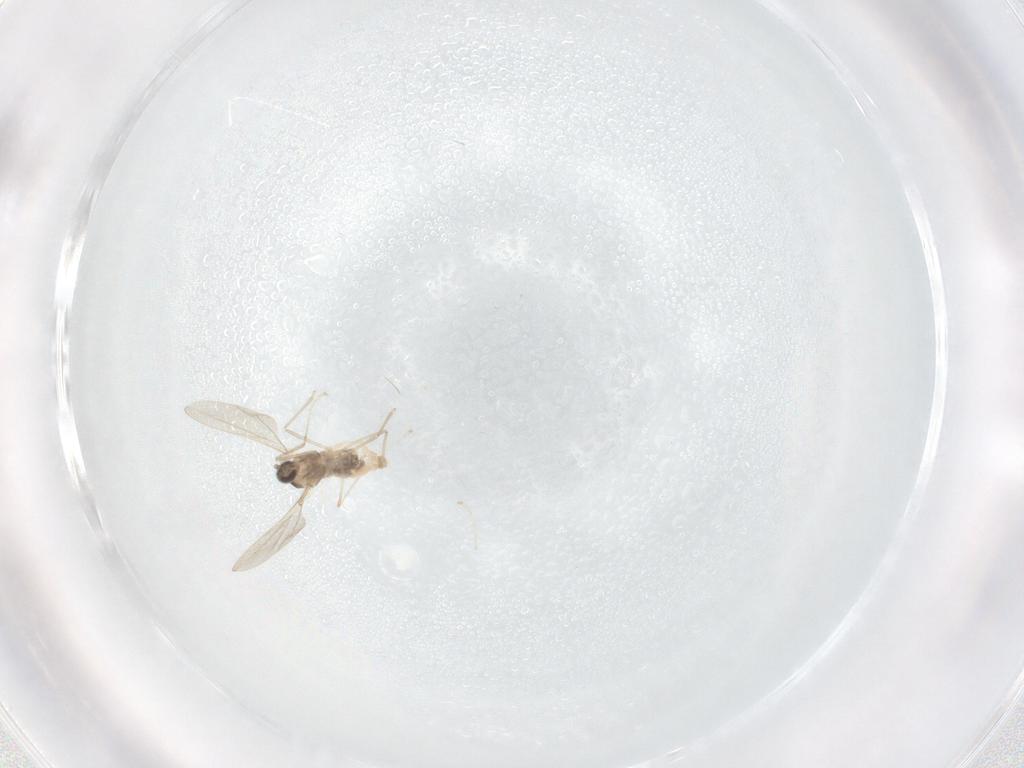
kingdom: Animalia
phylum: Arthropoda
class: Insecta
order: Diptera
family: Cecidomyiidae
